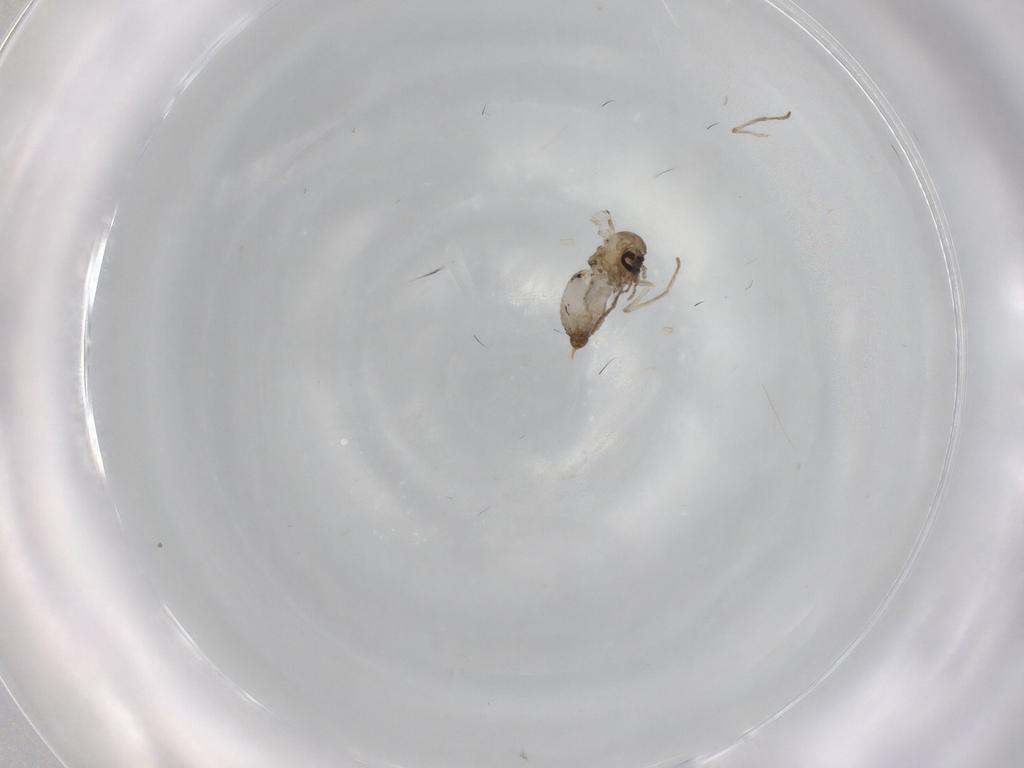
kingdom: Animalia
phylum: Arthropoda
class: Insecta
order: Diptera
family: Psychodidae
